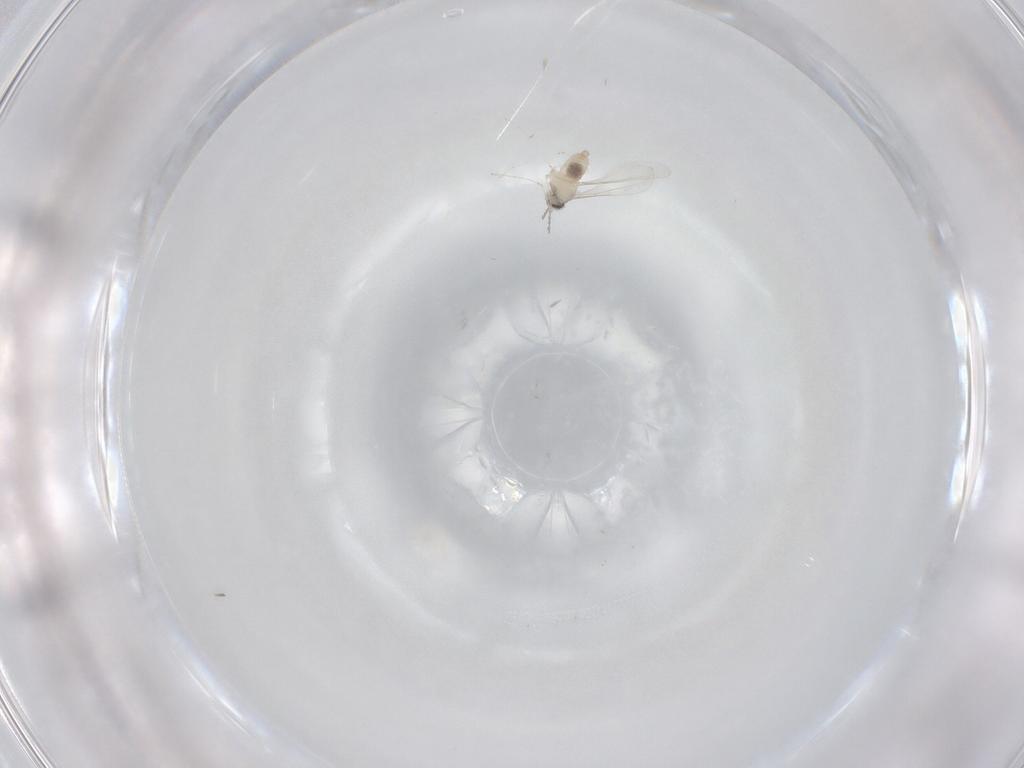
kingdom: Animalia
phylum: Arthropoda
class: Insecta
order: Diptera
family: Cecidomyiidae
